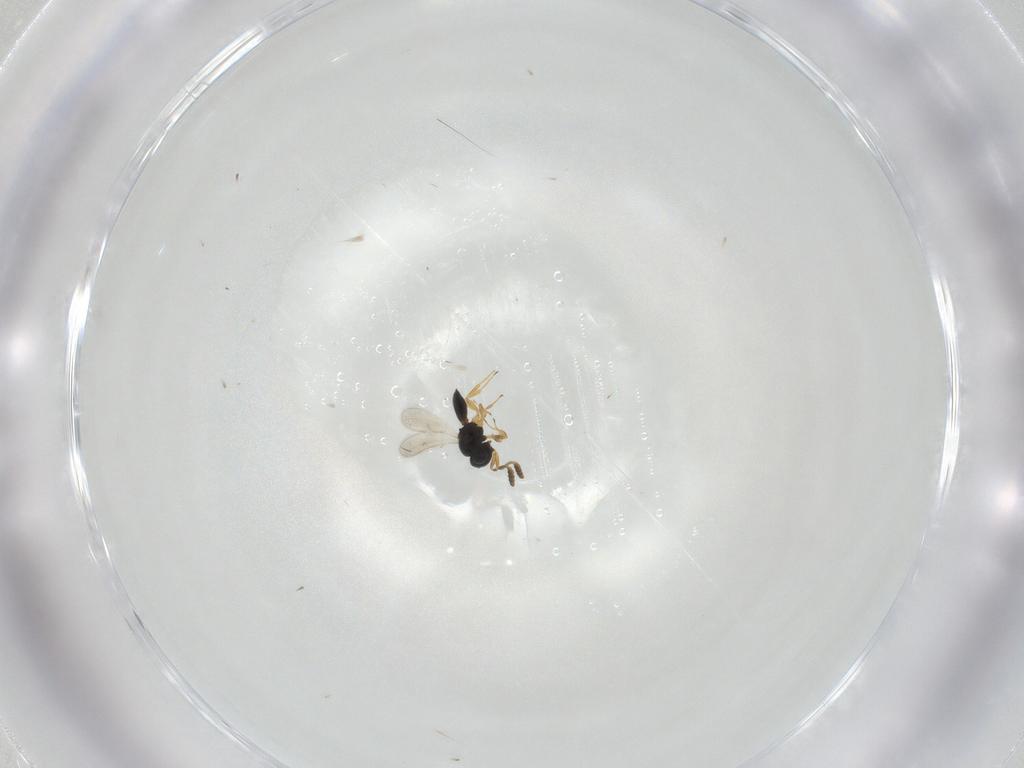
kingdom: Animalia
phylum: Arthropoda
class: Insecta
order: Hymenoptera
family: Scelionidae
